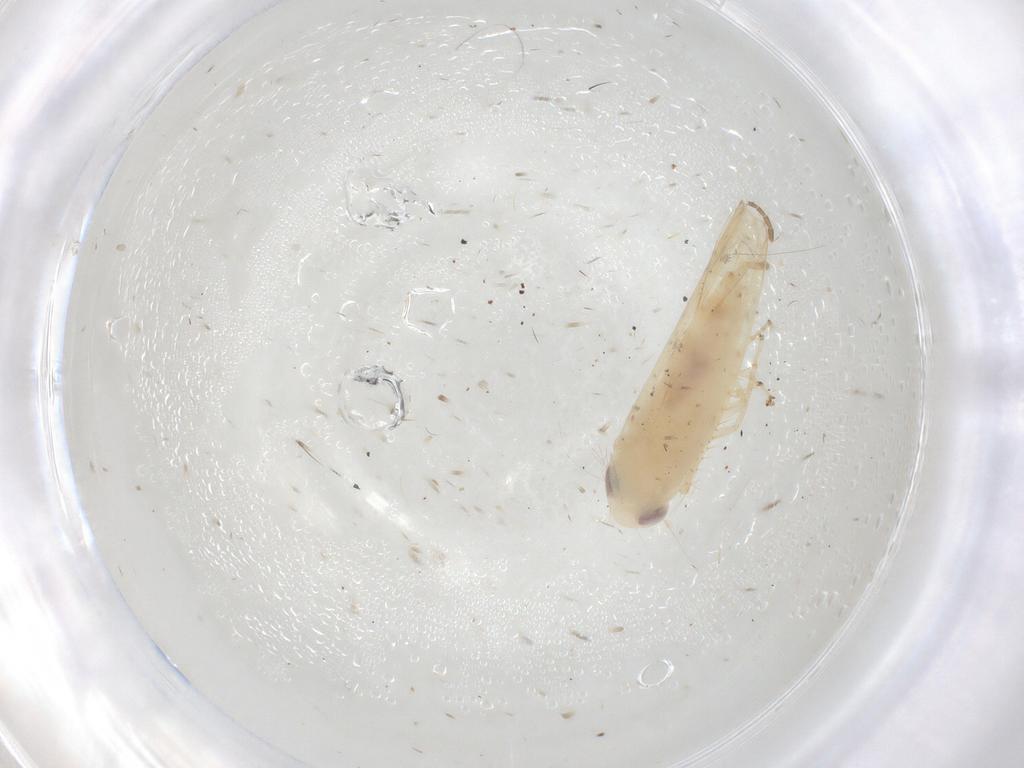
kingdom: Animalia
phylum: Arthropoda
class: Insecta
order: Hemiptera
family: Cicadellidae
